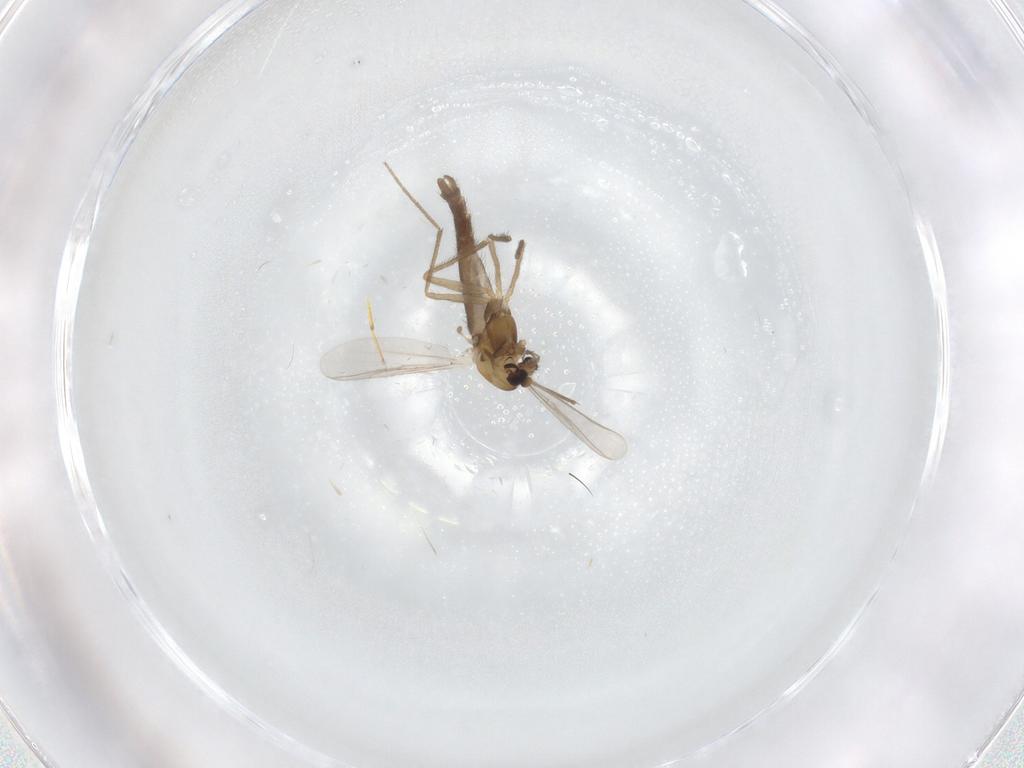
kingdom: Animalia
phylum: Arthropoda
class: Insecta
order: Diptera
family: Chironomidae
